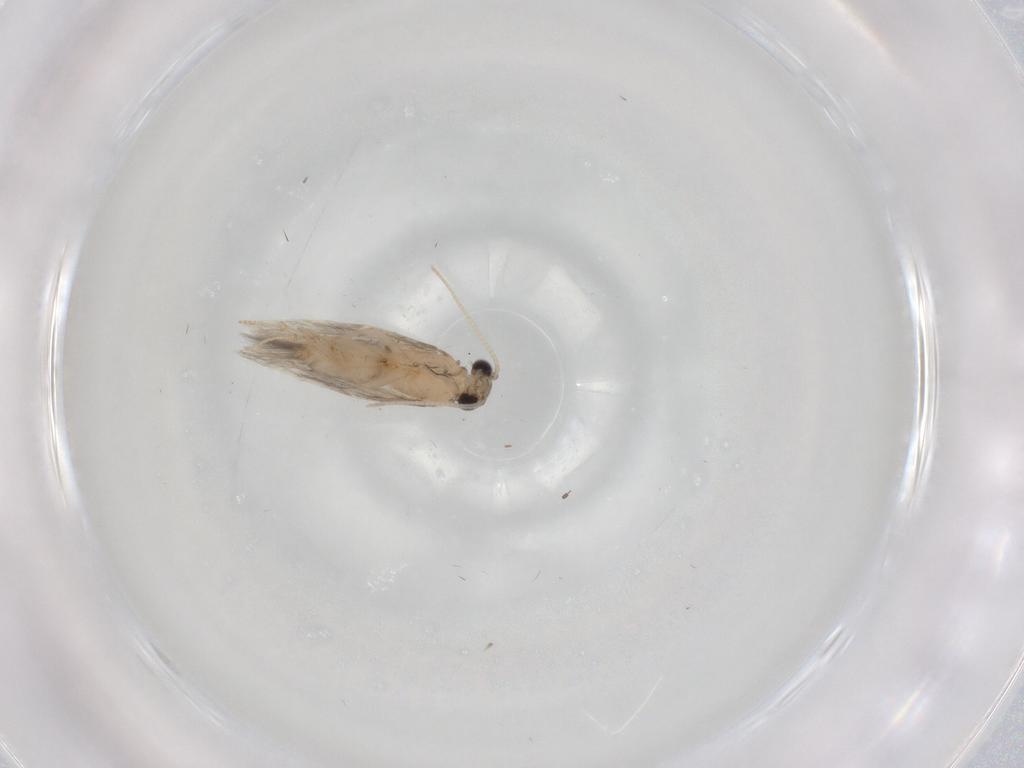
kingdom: Animalia
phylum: Arthropoda
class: Insecta
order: Trichoptera
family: Hydroptilidae
